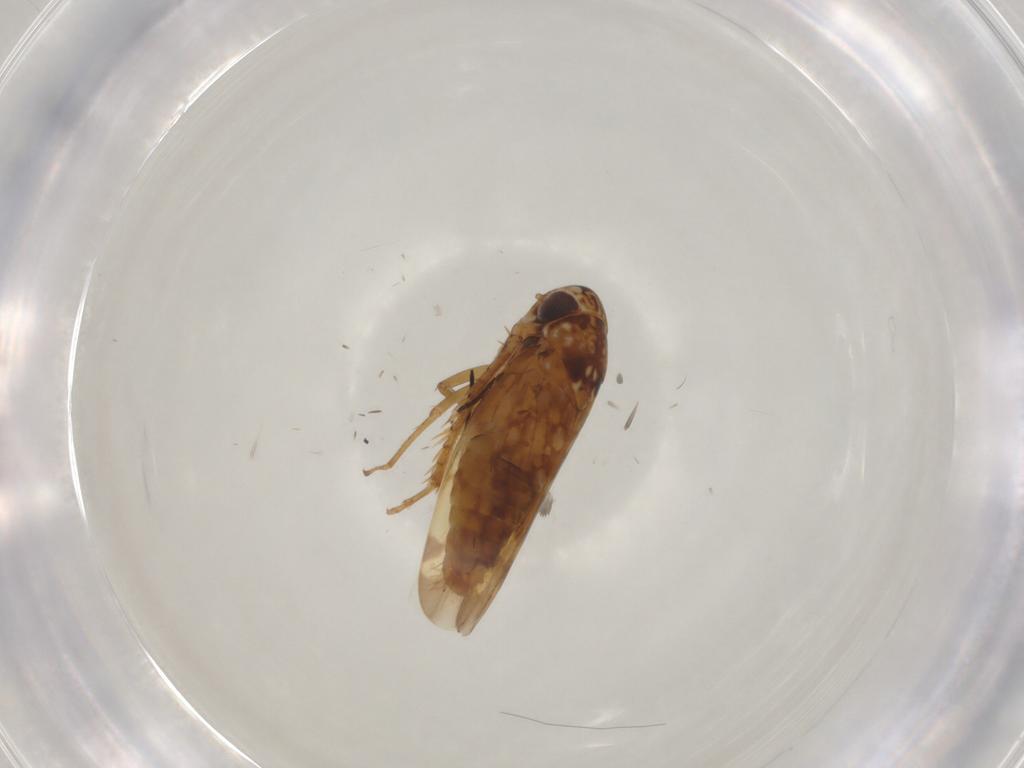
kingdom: Animalia
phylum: Arthropoda
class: Insecta
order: Hemiptera
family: Cicadellidae
